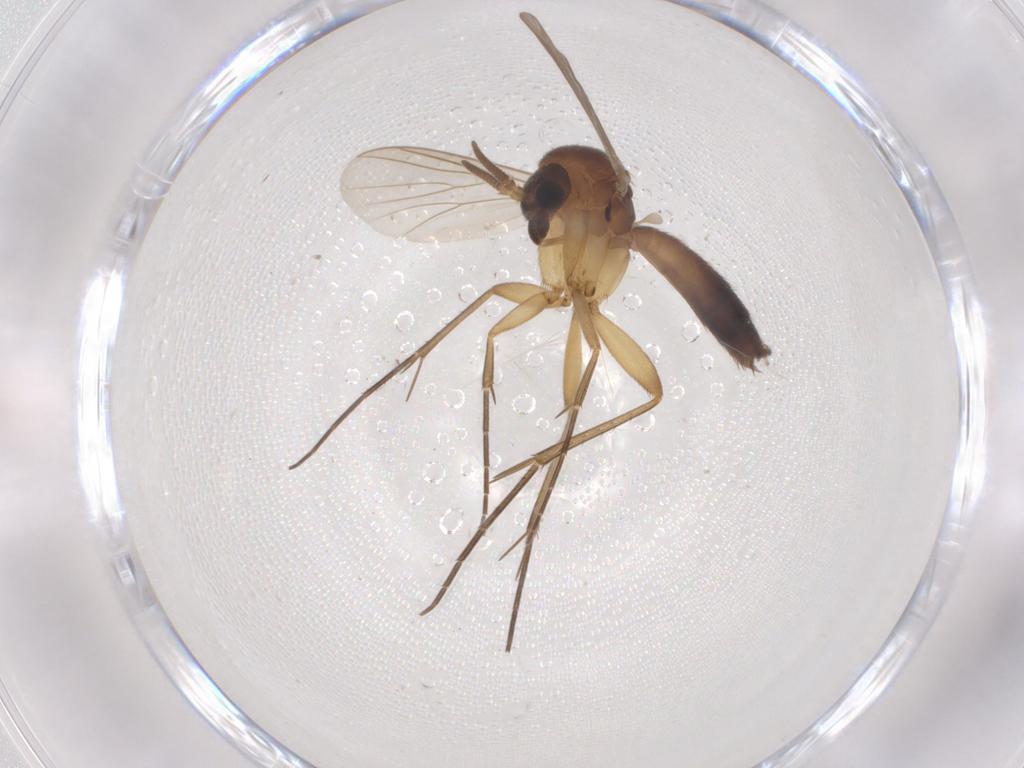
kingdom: Animalia
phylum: Arthropoda
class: Insecta
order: Diptera
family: Mycetophilidae
